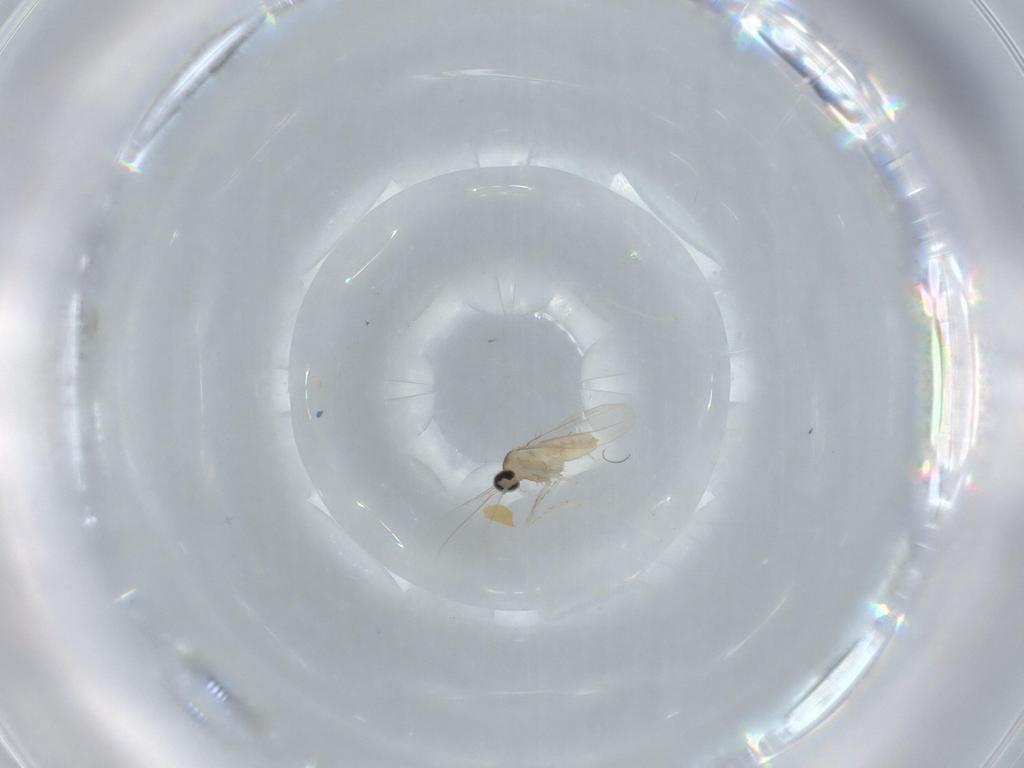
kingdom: Animalia
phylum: Arthropoda
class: Insecta
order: Diptera
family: Cecidomyiidae
